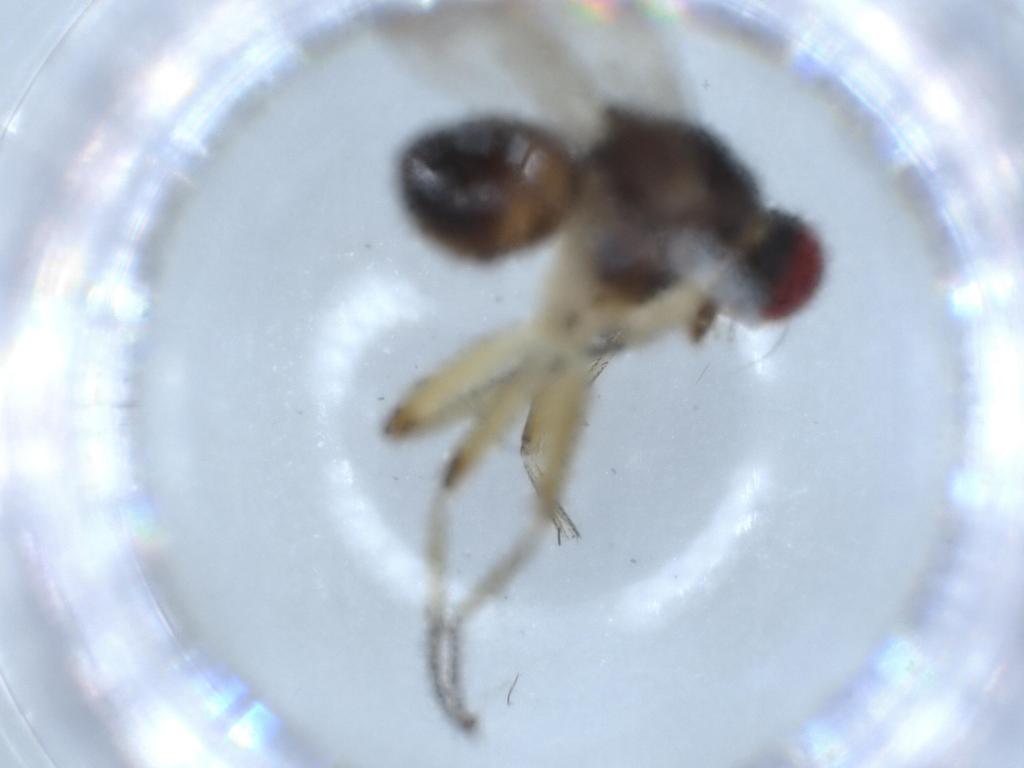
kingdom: Animalia
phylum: Arthropoda
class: Insecta
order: Diptera
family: Muscidae
